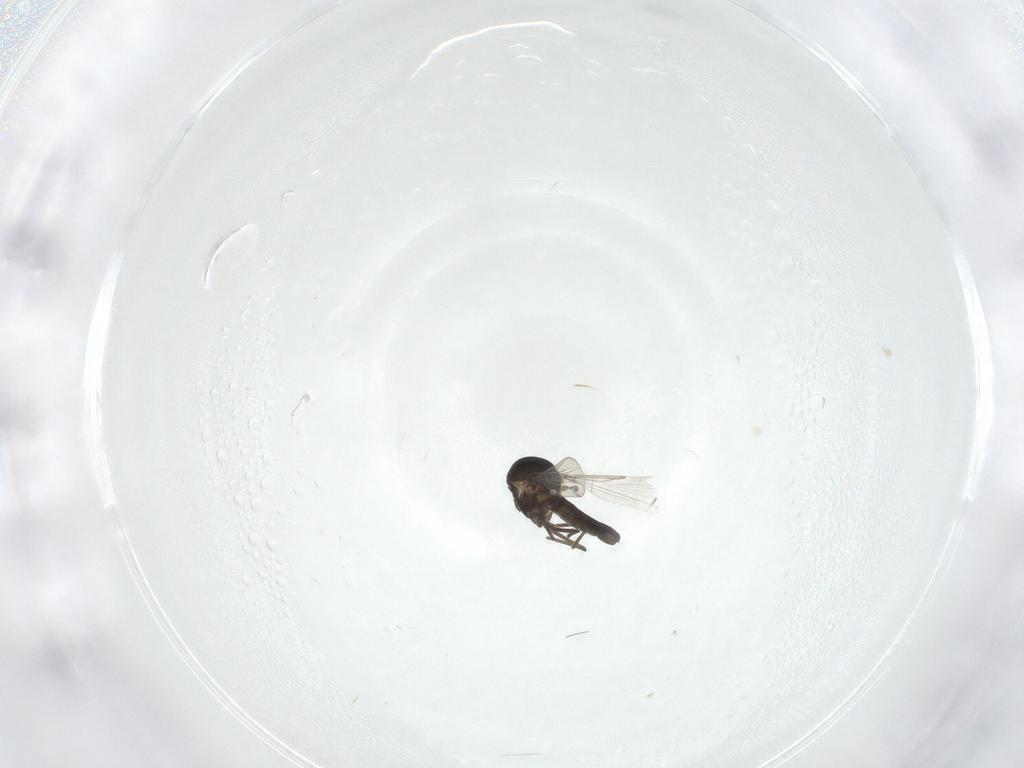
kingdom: Animalia
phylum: Arthropoda
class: Insecta
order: Diptera
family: Ceratopogonidae
